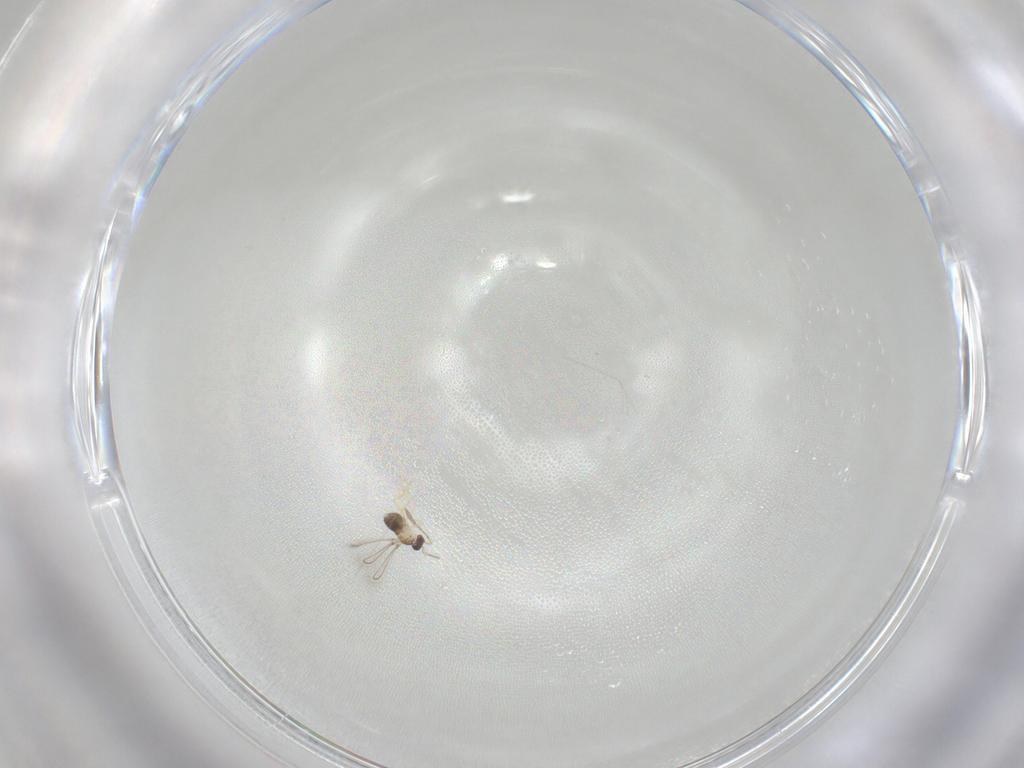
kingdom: Animalia
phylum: Arthropoda
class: Insecta
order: Hymenoptera
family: Mymaridae
